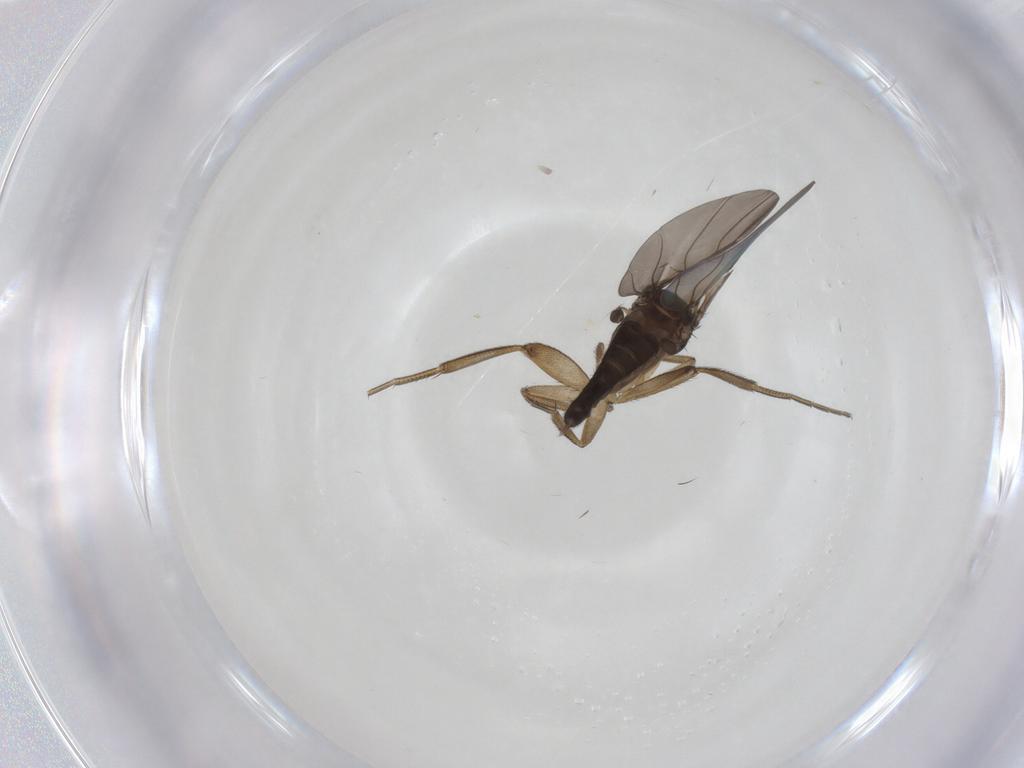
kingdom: Animalia
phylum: Arthropoda
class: Insecta
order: Diptera
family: Phoridae
